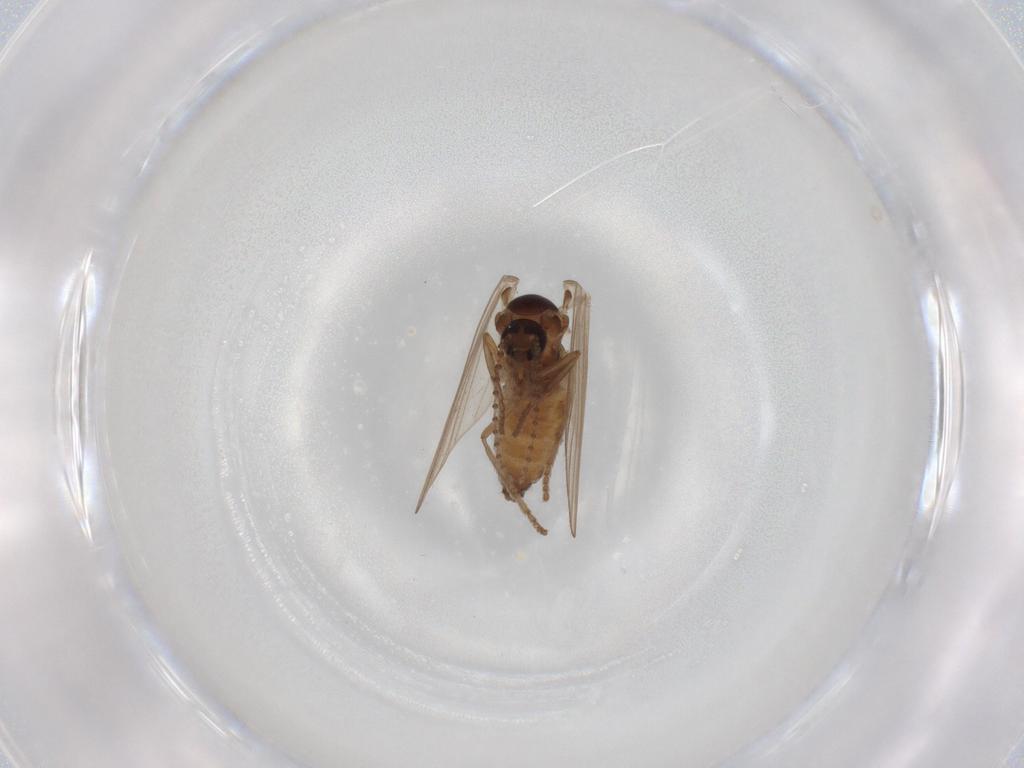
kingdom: Animalia
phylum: Arthropoda
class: Insecta
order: Diptera
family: Psychodidae
